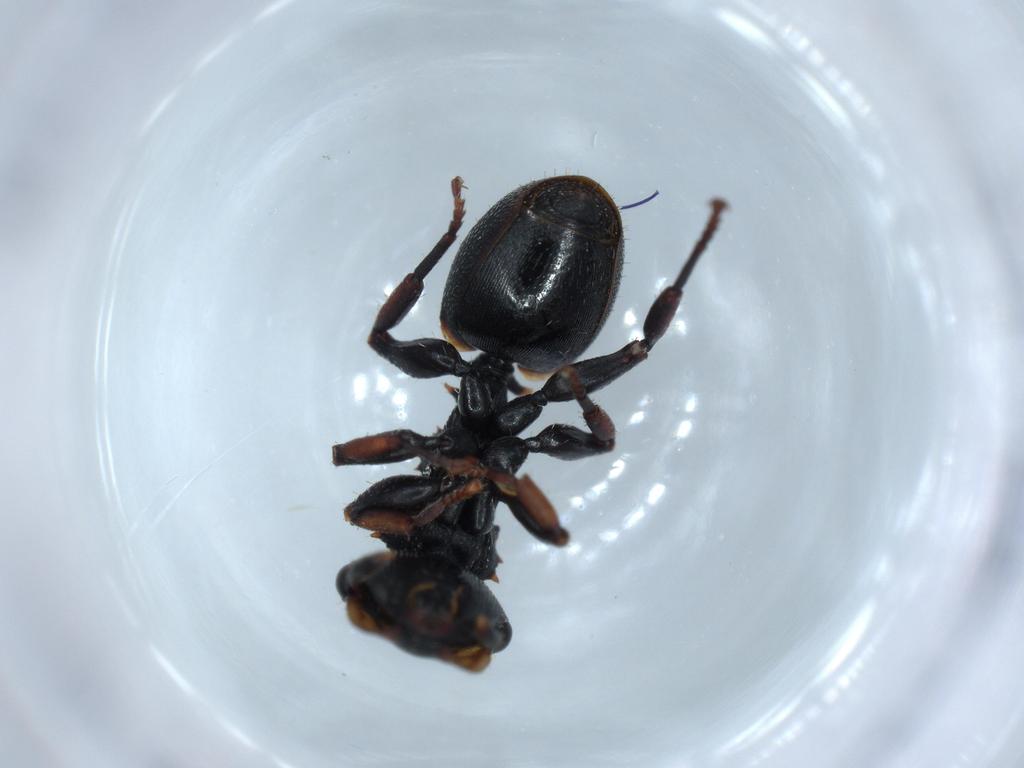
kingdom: Animalia
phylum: Arthropoda
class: Insecta
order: Hymenoptera
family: Formicidae
